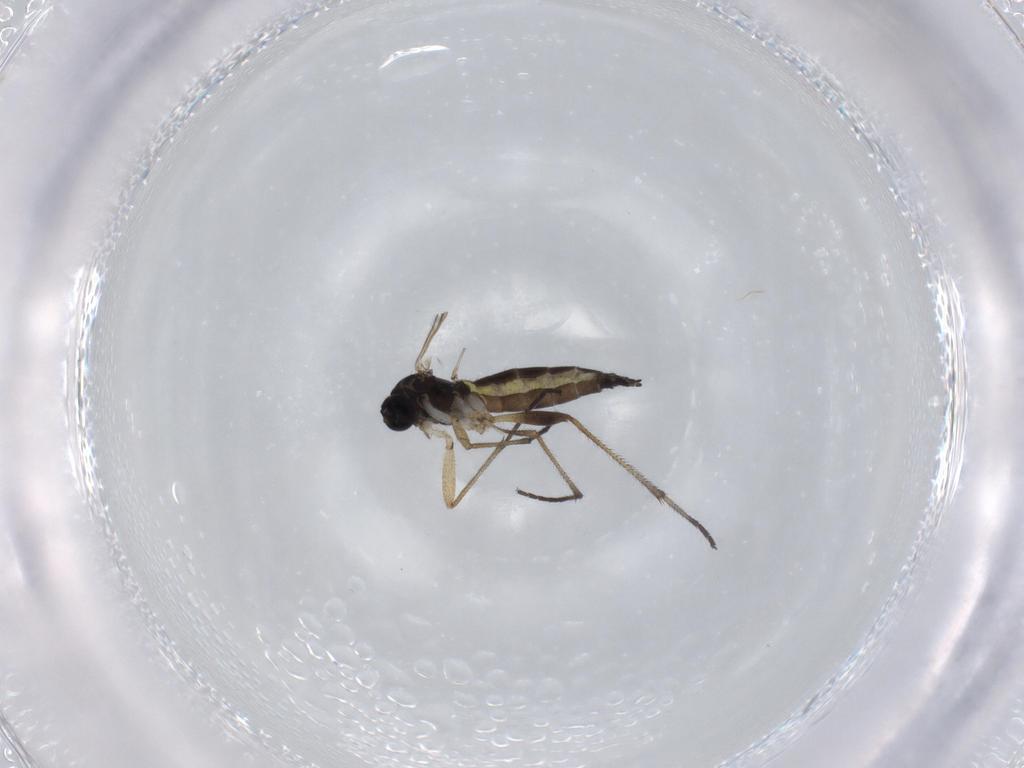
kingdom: Animalia
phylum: Arthropoda
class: Insecta
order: Diptera
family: Sciaridae
